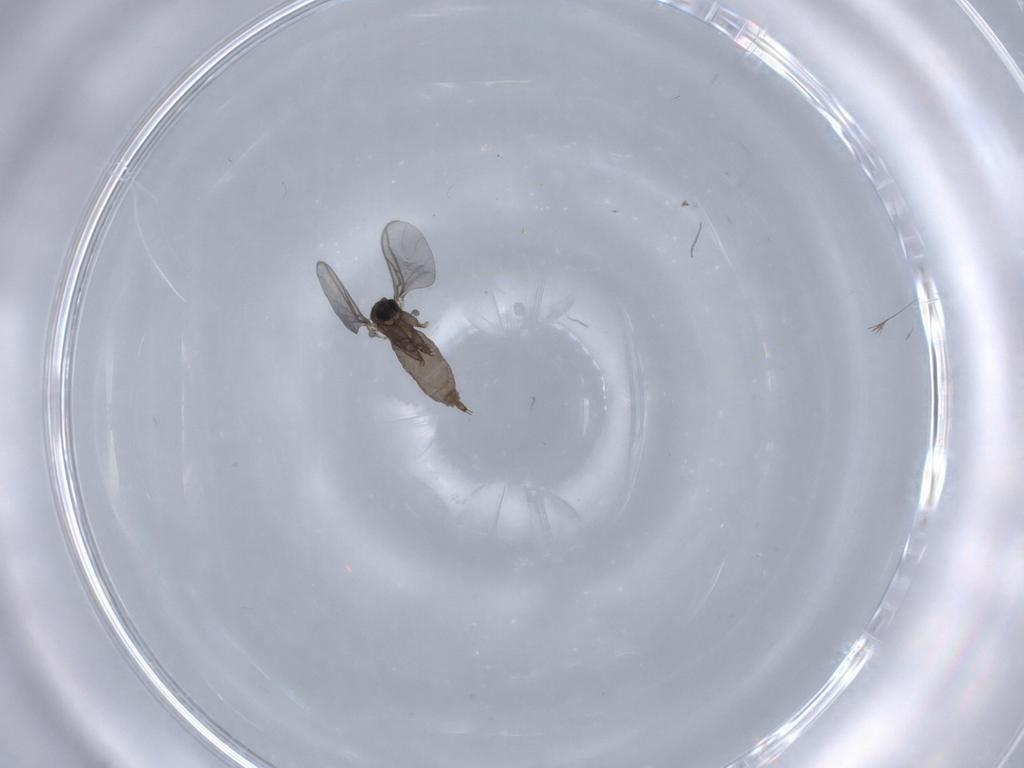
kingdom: Animalia
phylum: Arthropoda
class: Insecta
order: Diptera
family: Sciaridae
